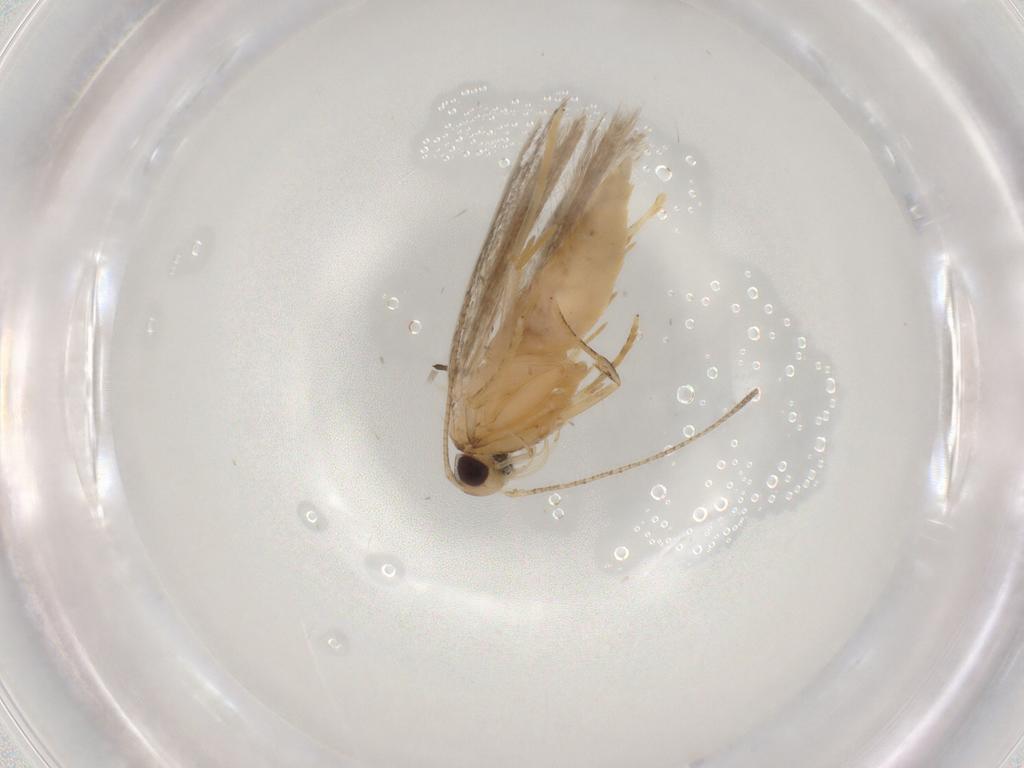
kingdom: Animalia
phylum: Arthropoda
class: Insecta
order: Lepidoptera
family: Autostichidae
